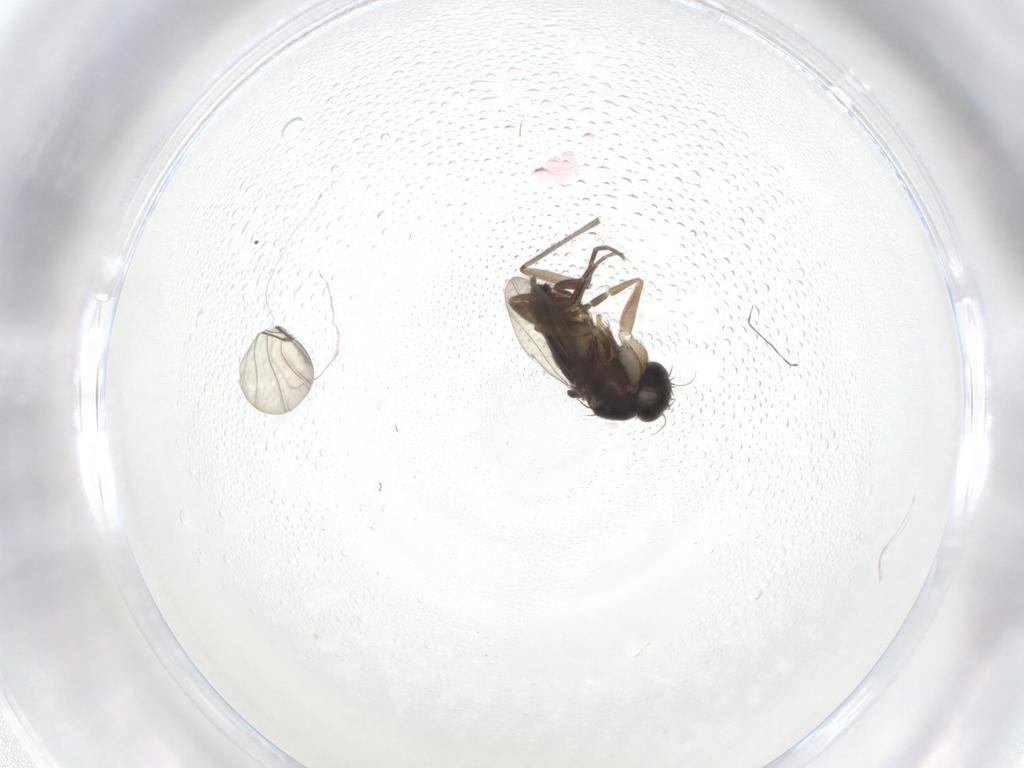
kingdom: Animalia
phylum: Arthropoda
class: Insecta
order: Diptera
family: Phoridae
